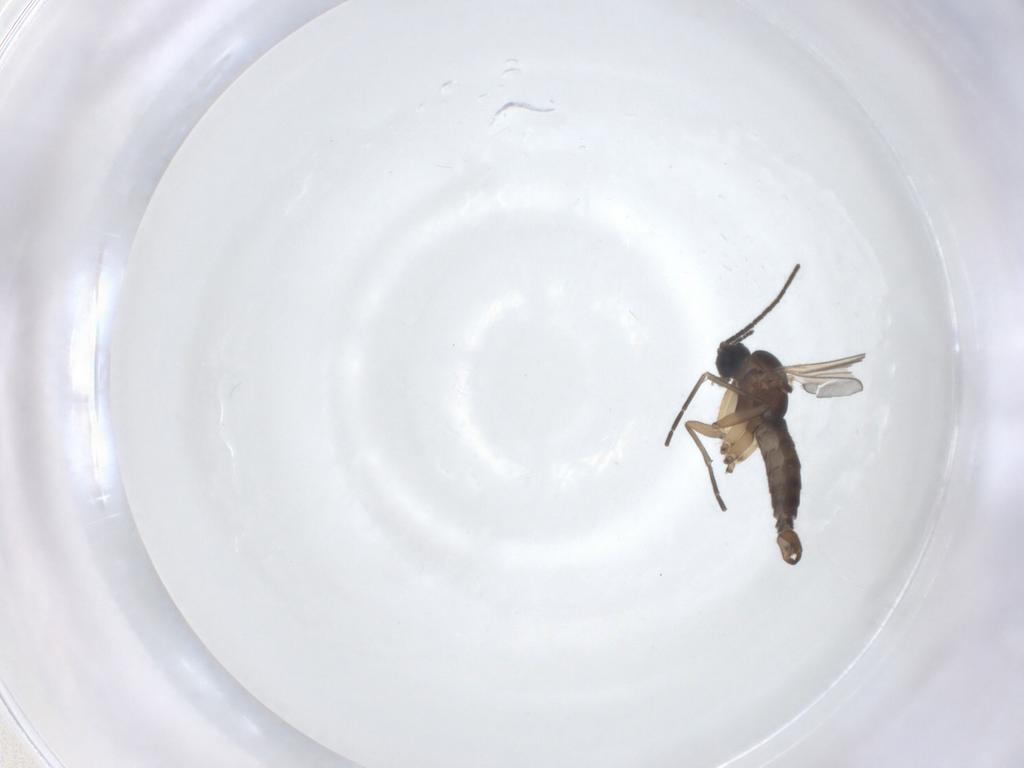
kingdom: Animalia
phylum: Arthropoda
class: Insecta
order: Diptera
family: Sciaridae
